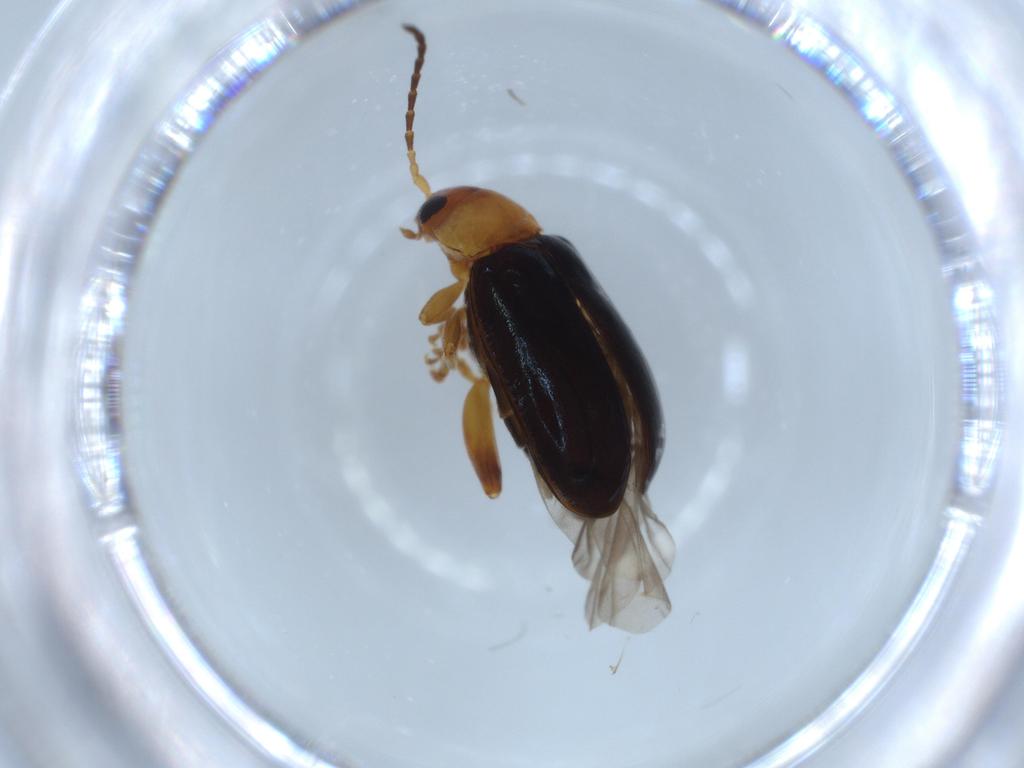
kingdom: Animalia
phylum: Arthropoda
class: Insecta
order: Coleoptera
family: Chrysomelidae
